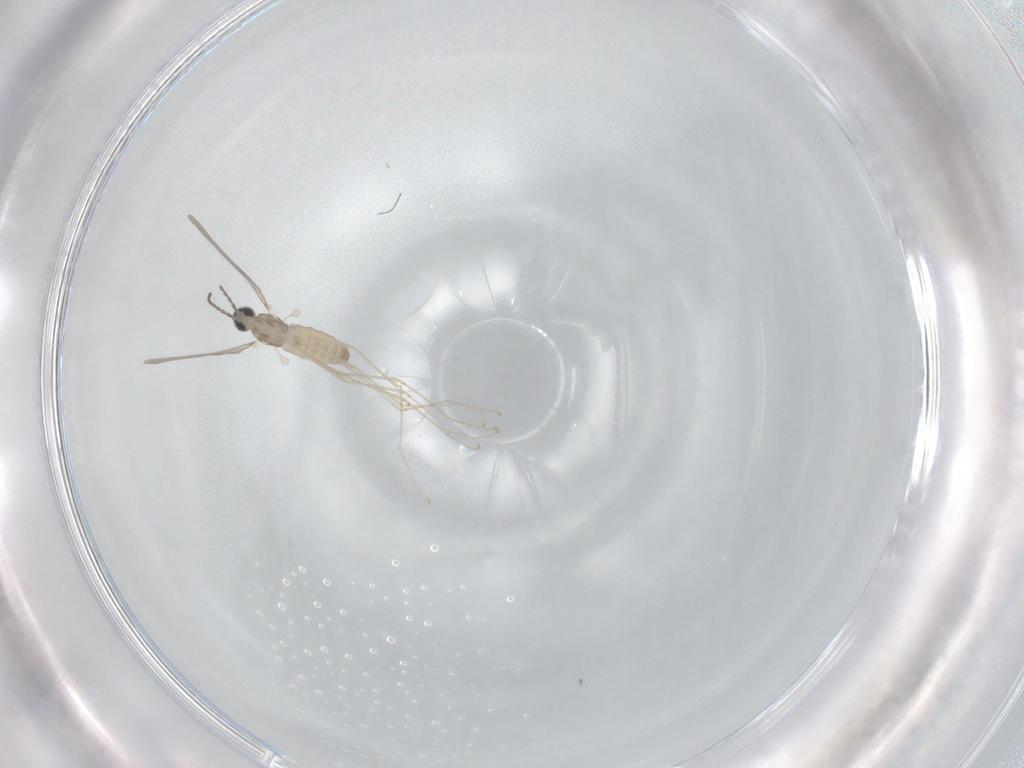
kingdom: Animalia
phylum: Arthropoda
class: Insecta
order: Diptera
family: Cecidomyiidae
